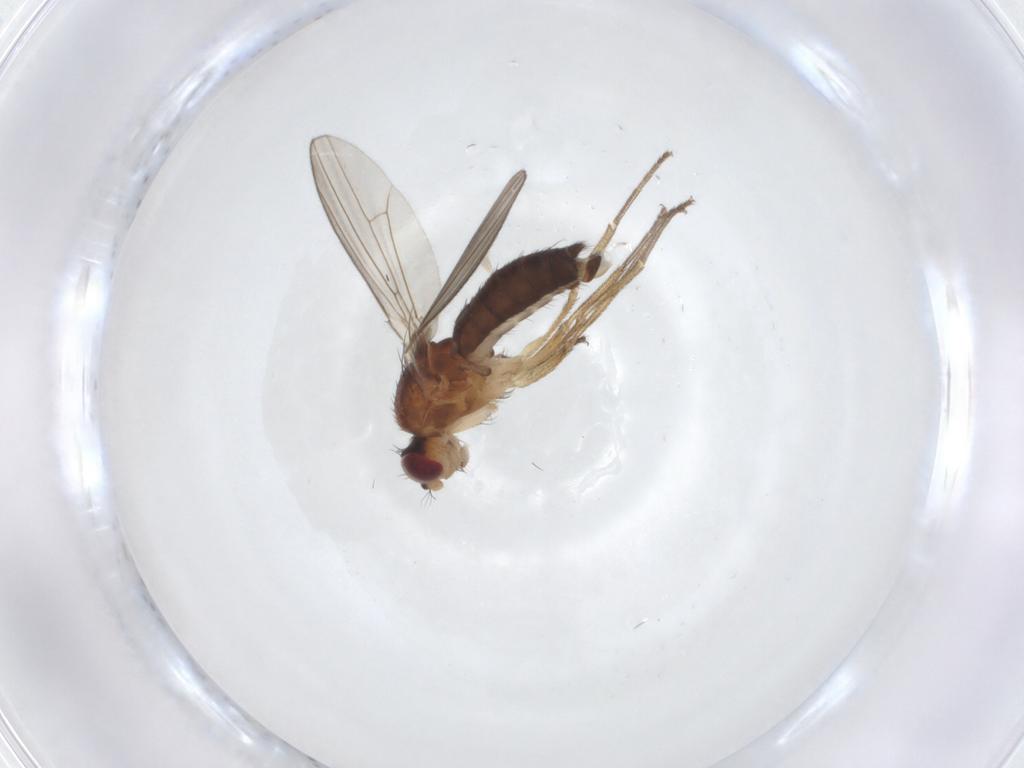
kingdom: Animalia
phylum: Arthropoda
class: Insecta
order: Diptera
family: Drosophilidae
